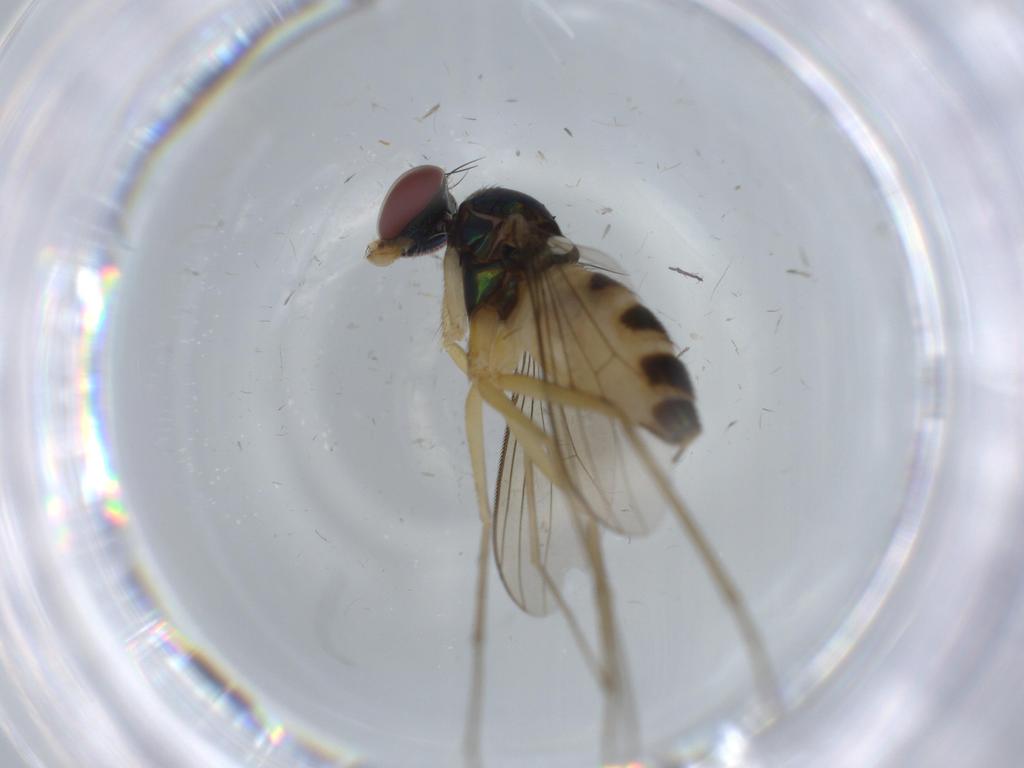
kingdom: Animalia
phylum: Arthropoda
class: Insecta
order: Diptera
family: Dolichopodidae
